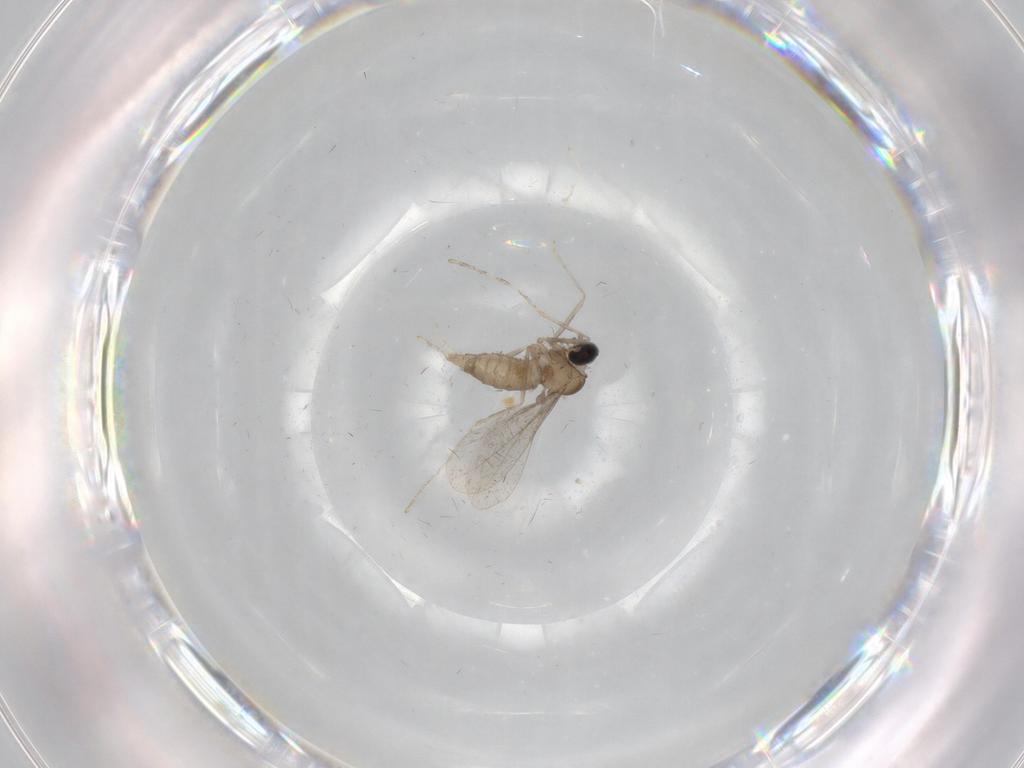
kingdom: Animalia
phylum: Arthropoda
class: Insecta
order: Diptera
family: Cecidomyiidae
